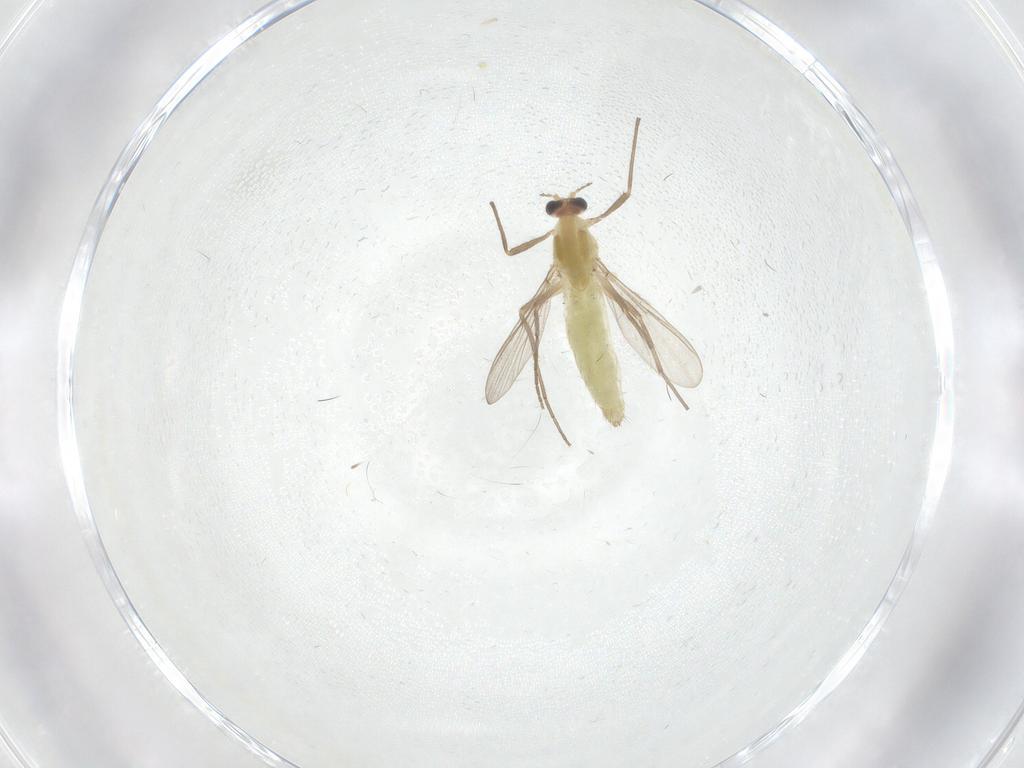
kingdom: Animalia
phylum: Arthropoda
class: Insecta
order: Diptera
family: Chironomidae
